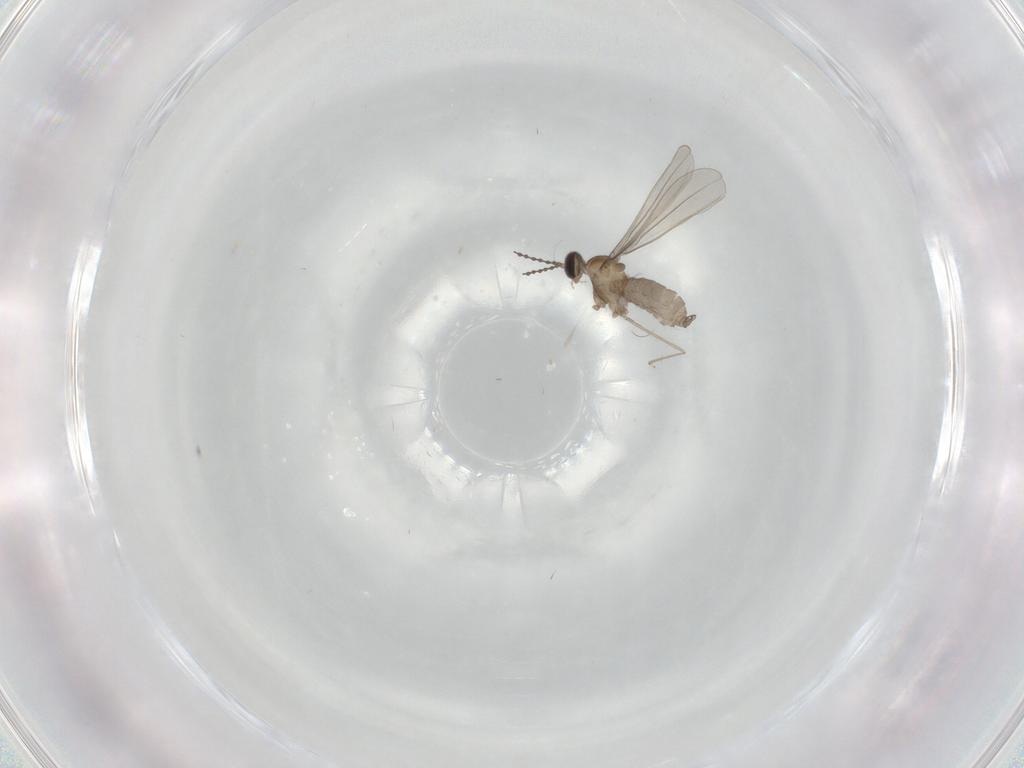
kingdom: Animalia
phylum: Arthropoda
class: Insecta
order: Diptera
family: Cecidomyiidae
